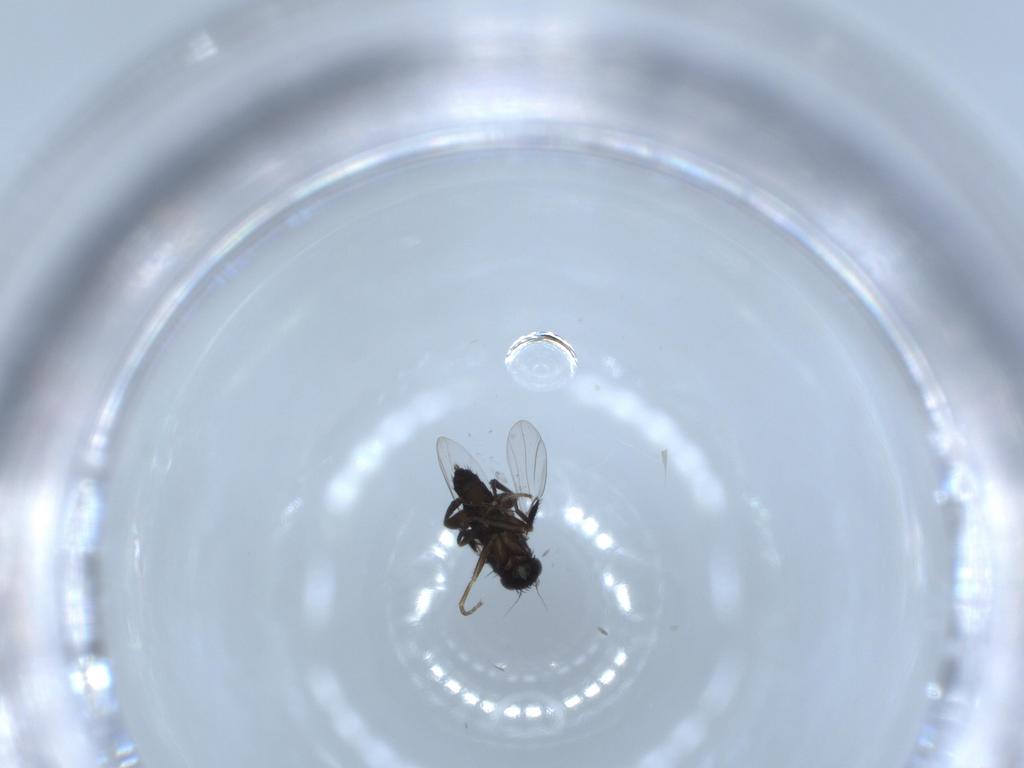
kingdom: Animalia
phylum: Arthropoda
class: Insecta
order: Diptera
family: Phoridae
